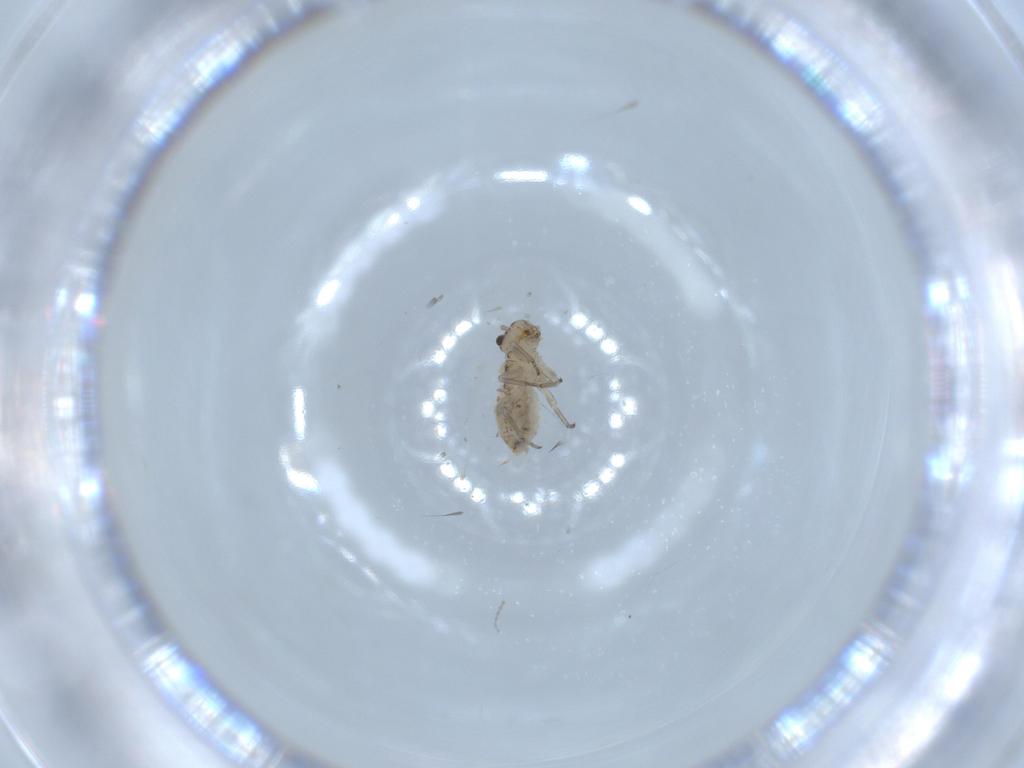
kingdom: Animalia
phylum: Arthropoda
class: Insecta
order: Psocodea
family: Psocidae
